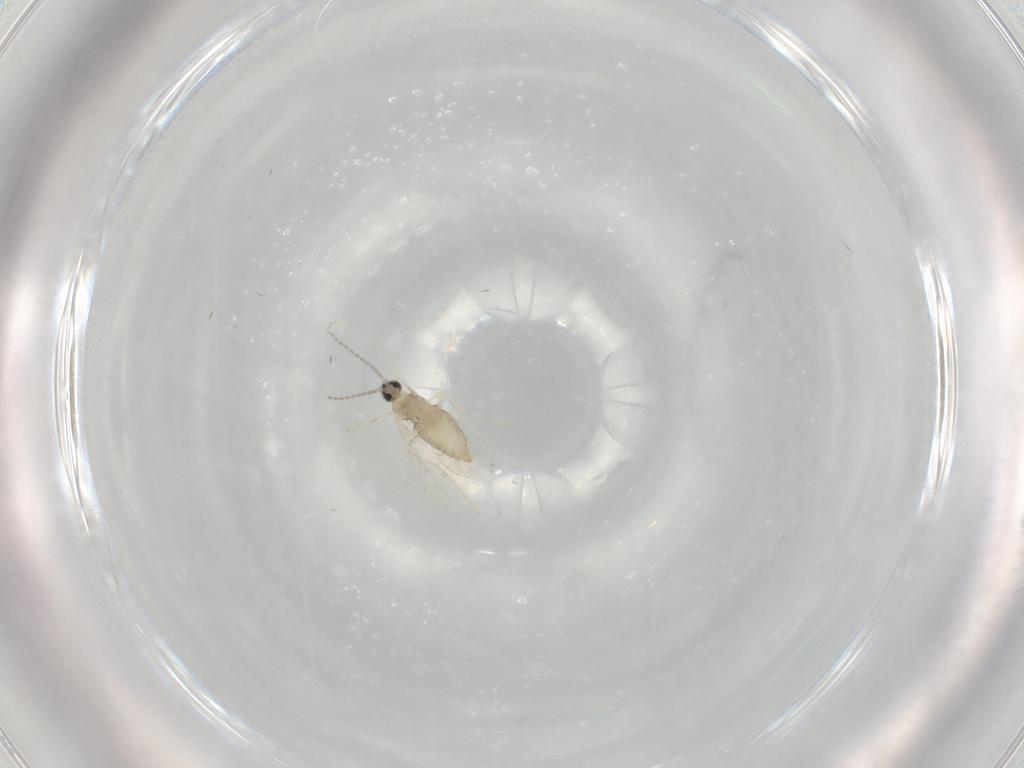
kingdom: Animalia
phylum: Arthropoda
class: Insecta
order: Diptera
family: Cecidomyiidae
